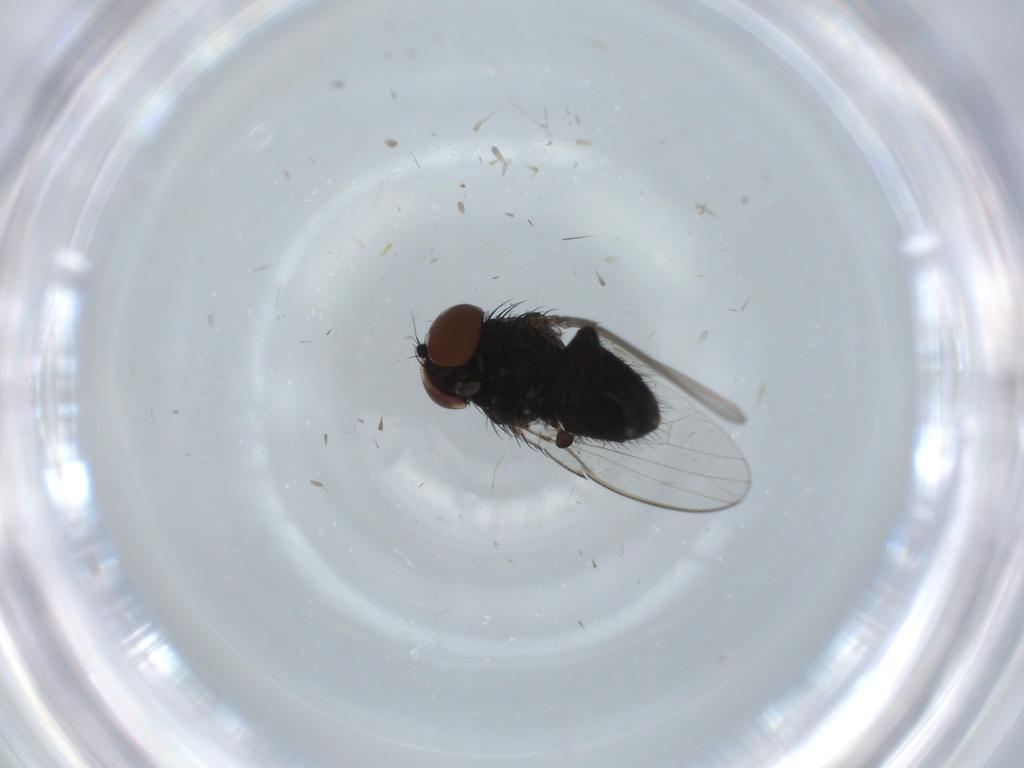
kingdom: Animalia
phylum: Arthropoda
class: Insecta
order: Diptera
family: Milichiidae
